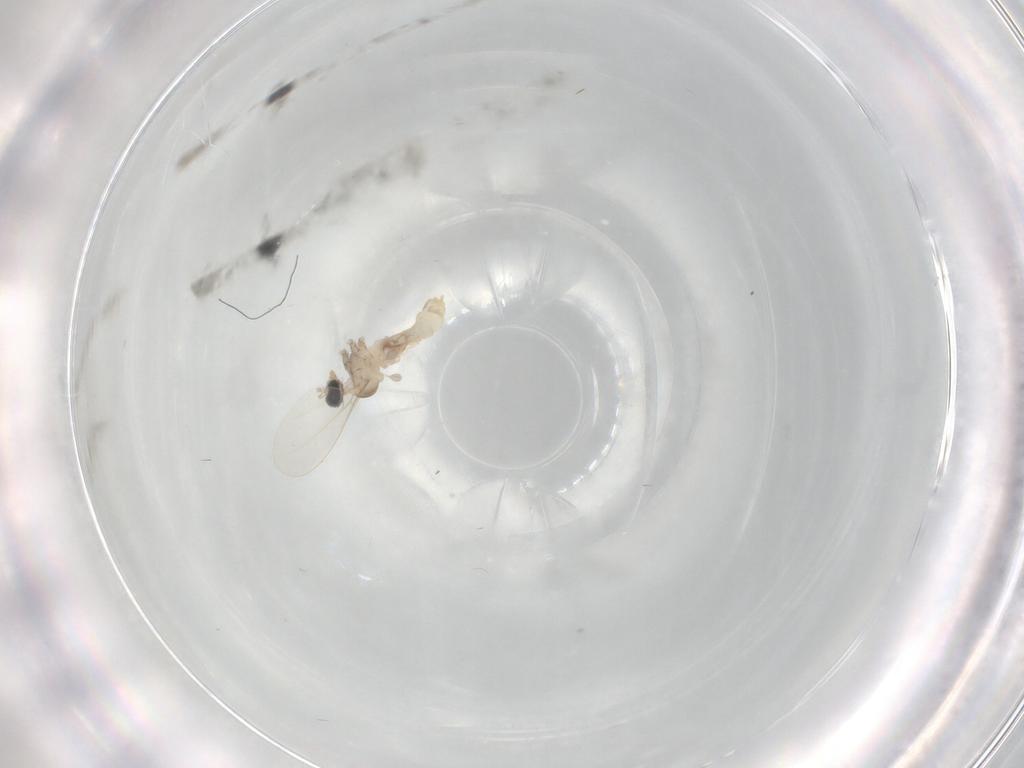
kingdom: Animalia
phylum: Arthropoda
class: Insecta
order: Diptera
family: Cecidomyiidae
